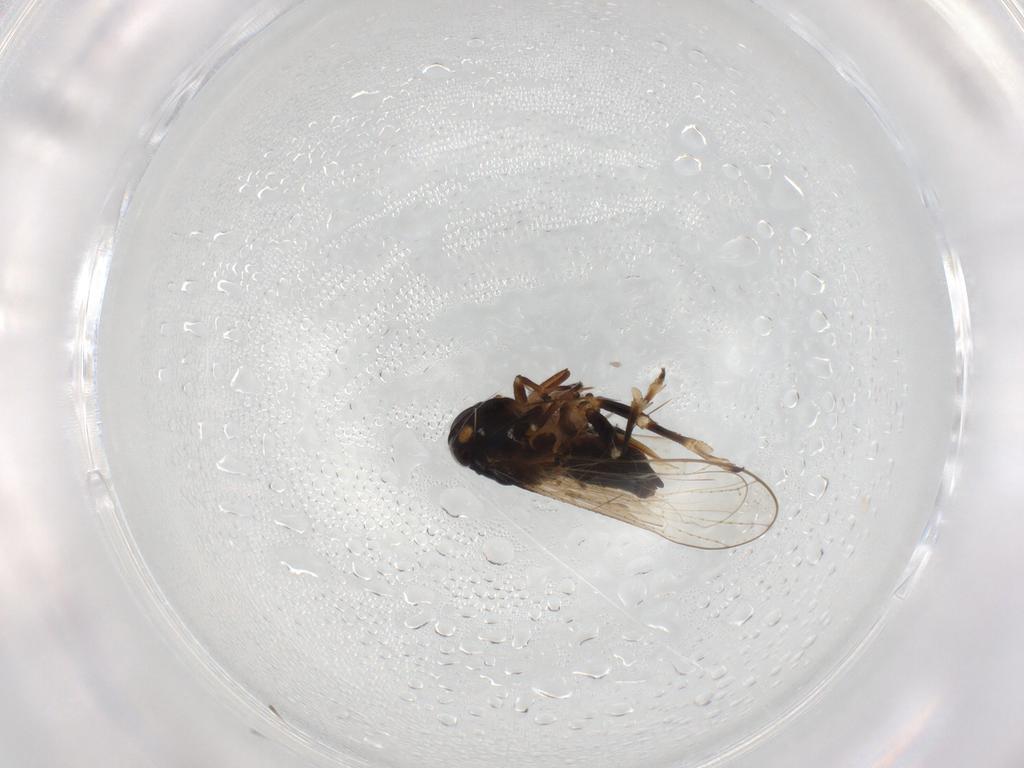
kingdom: Animalia
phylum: Arthropoda
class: Insecta
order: Hemiptera
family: Delphacidae
